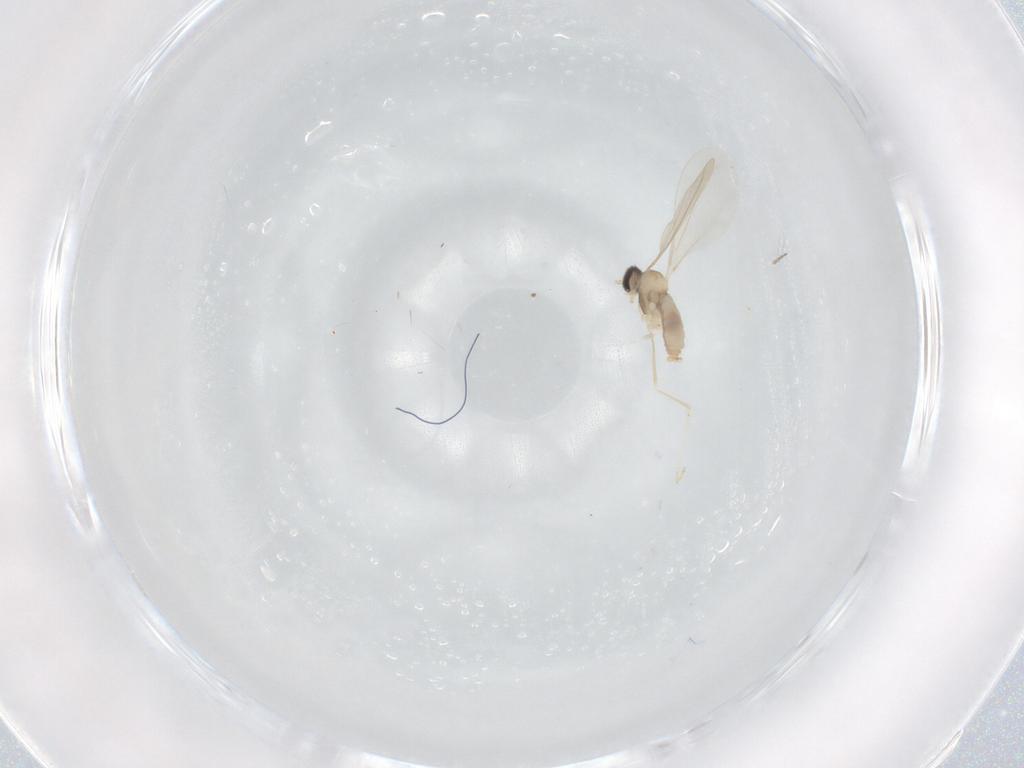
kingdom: Animalia
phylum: Arthropoda
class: Insecta
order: Diptera
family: Cecidomyiidae
